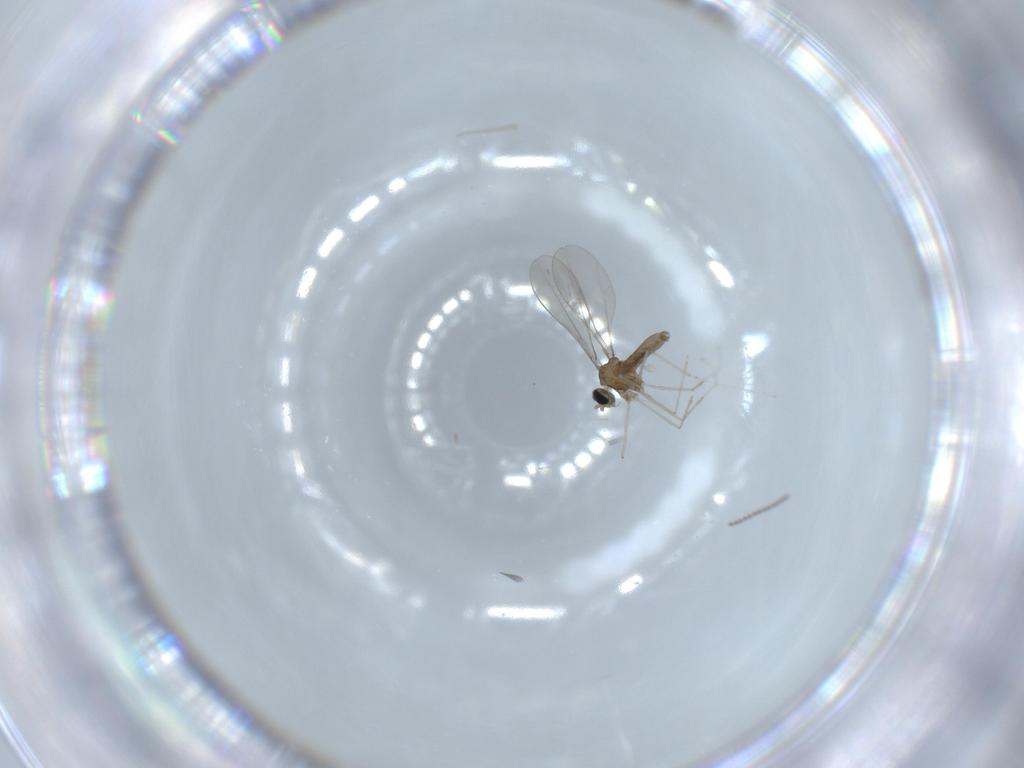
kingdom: Animalia
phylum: Arthropoda
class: Insecta
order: Diptera
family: Cecidomyiidae
